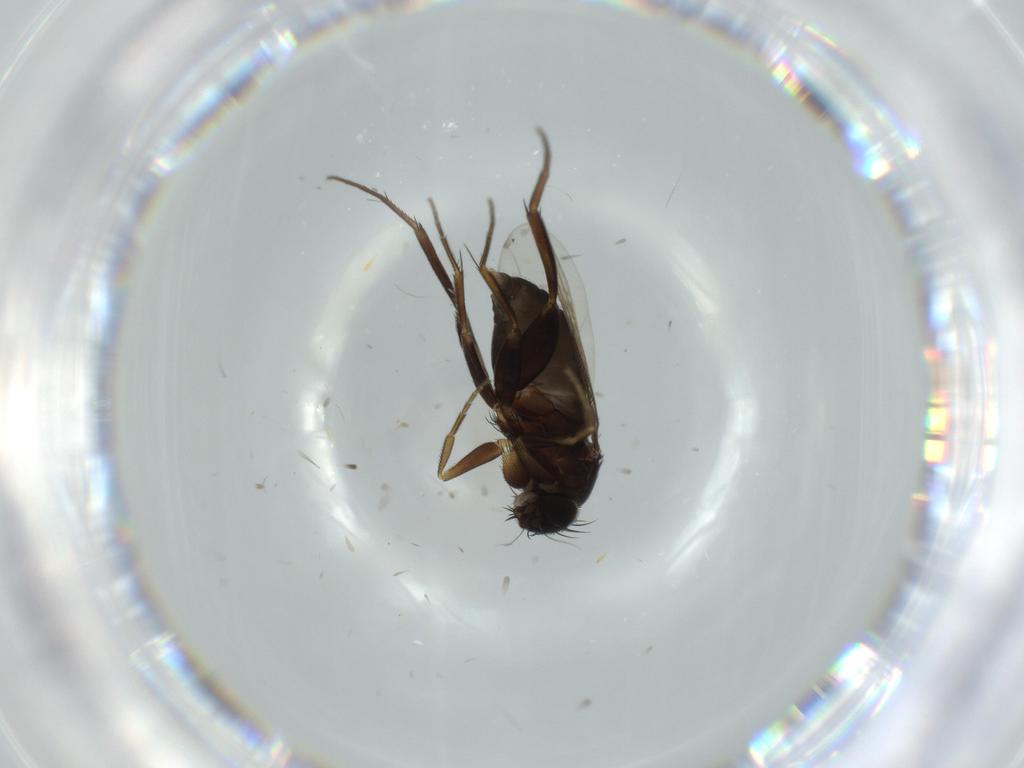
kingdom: Animalia
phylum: Arthropoda
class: Insecta
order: Diptera
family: Phoridae
